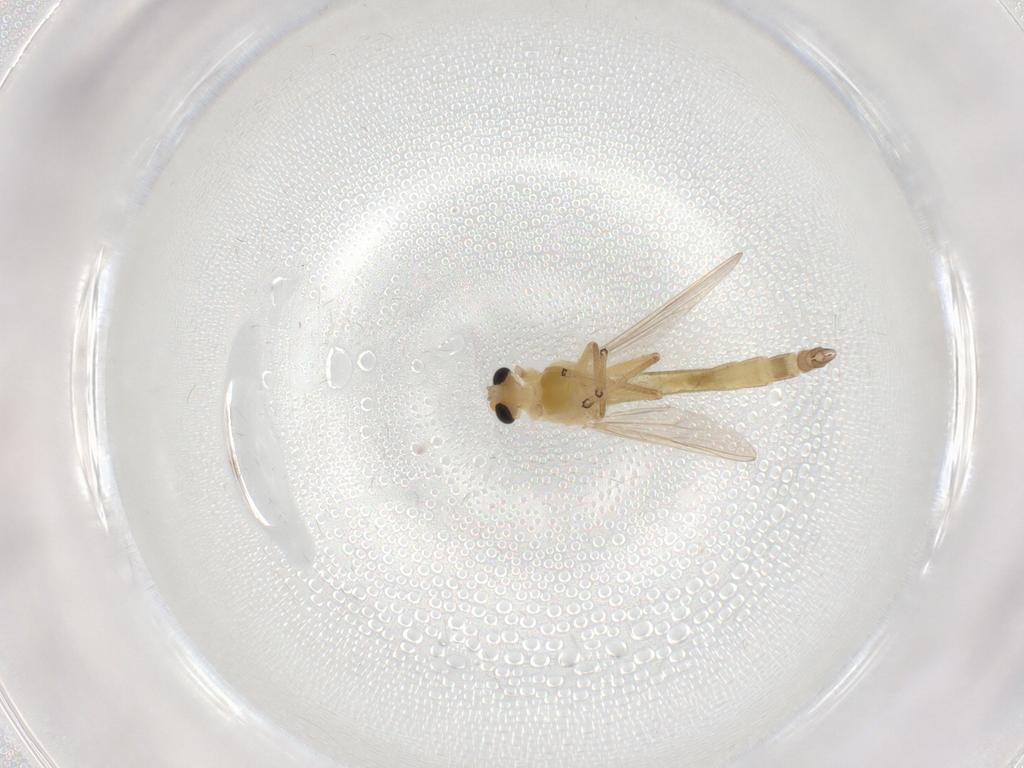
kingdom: Animalia
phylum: Arthropoda
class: Insecta
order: Diptera
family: Chironomidae
